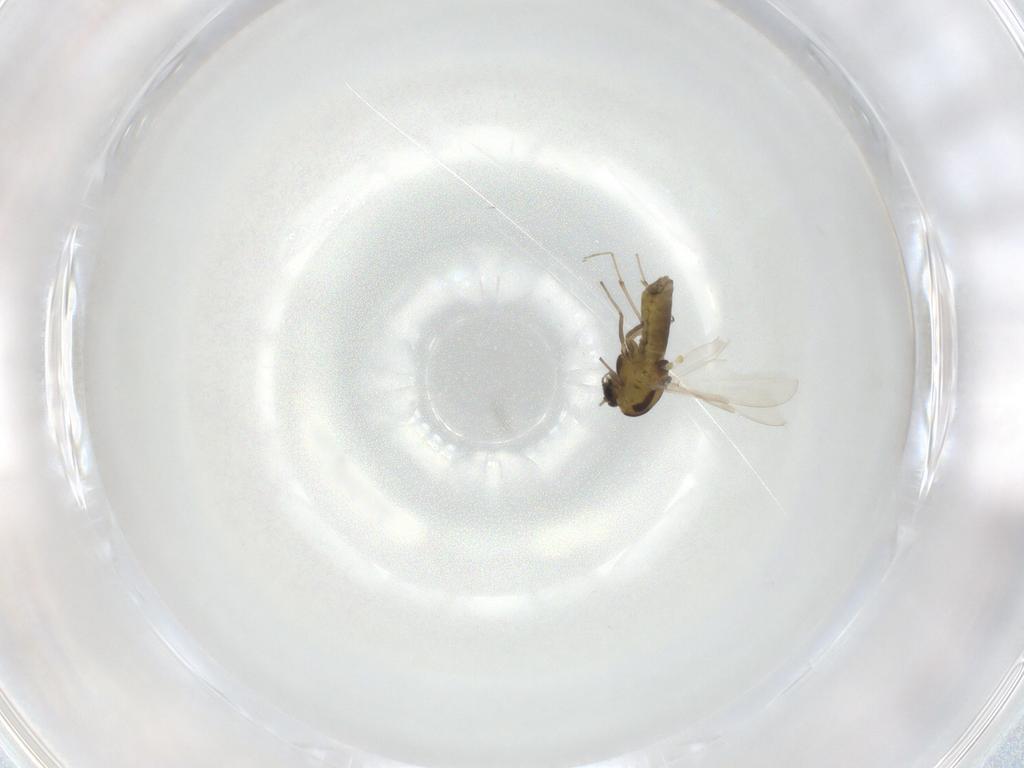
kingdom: Animalia
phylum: Arthropoda
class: Insecta
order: Diptera
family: Chironomidae
